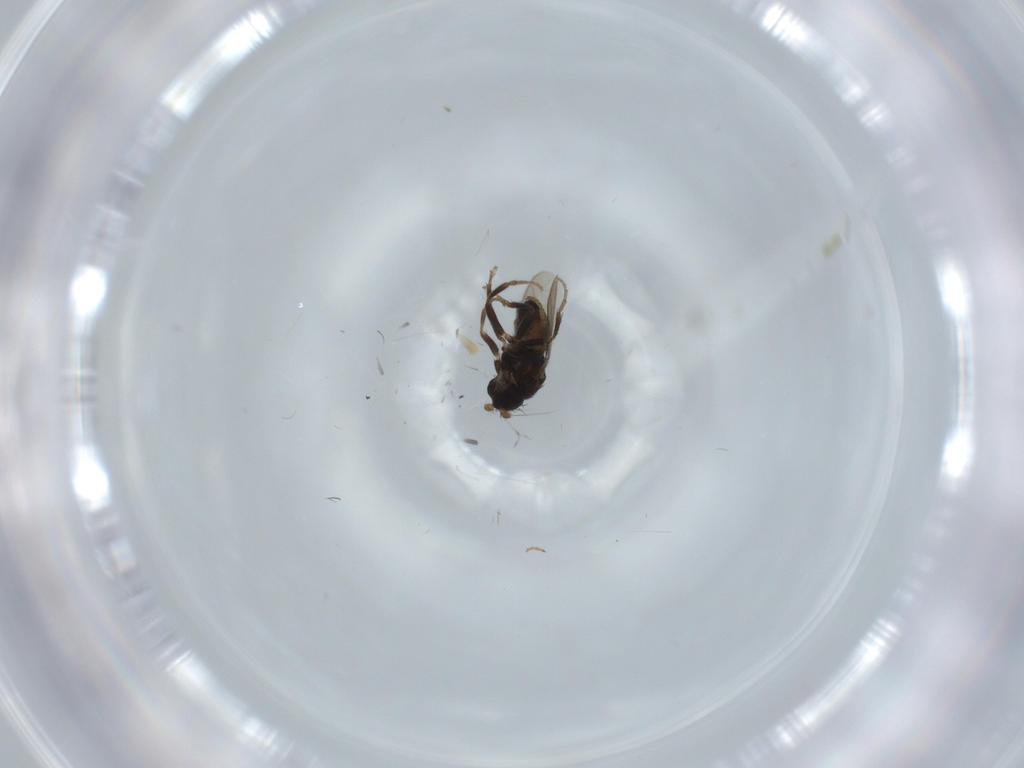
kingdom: Animalia
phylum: Arthropoda
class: Insecta
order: Diptera
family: Sphaeroceridae
